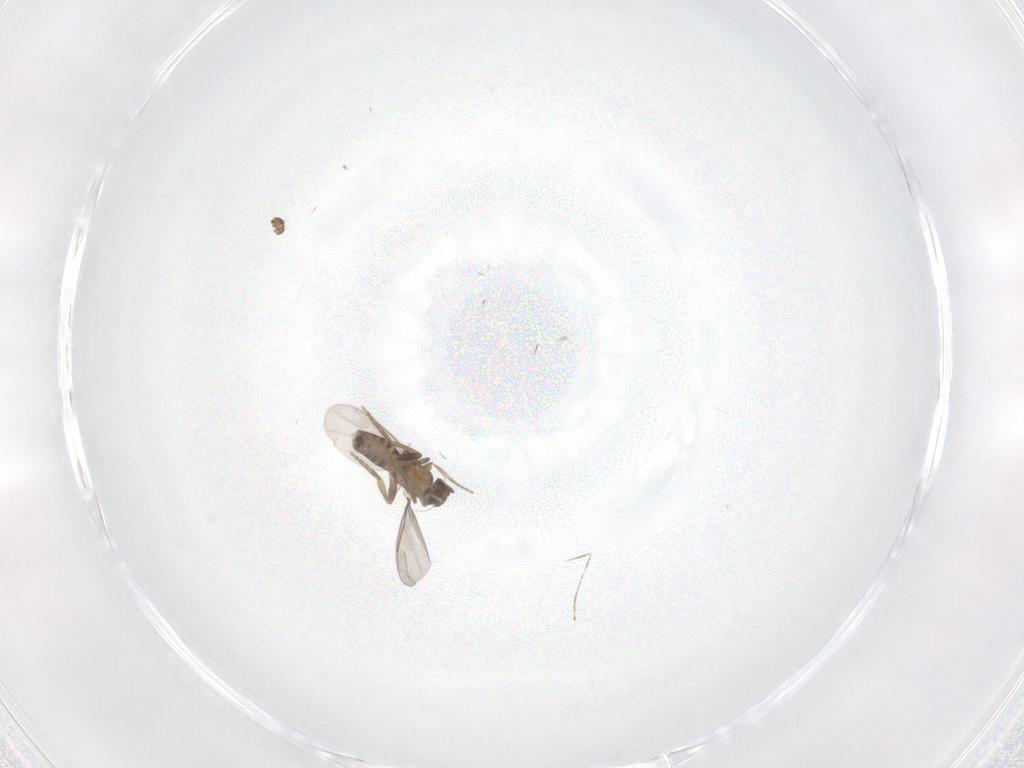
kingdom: Animalia
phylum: Arthropoda
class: Insecta
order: Diptera
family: Ceratopogonidae
